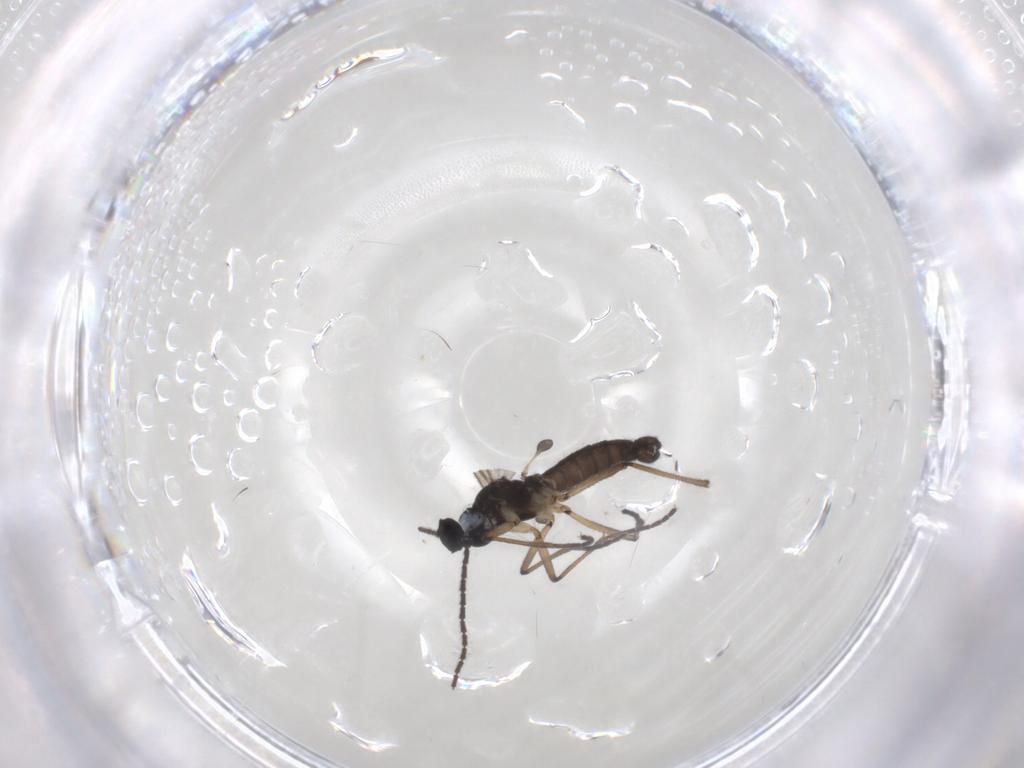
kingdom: Animalia
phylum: Arthropoda
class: Insecta
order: Diptera
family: Sciaridae
